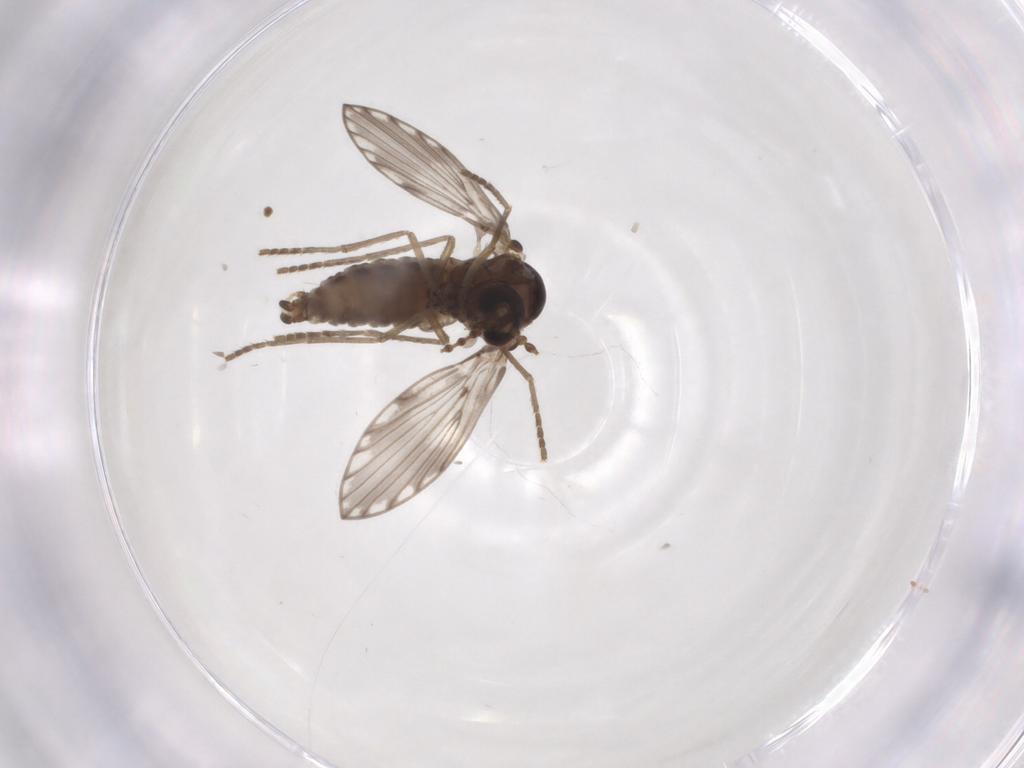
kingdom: Animalia
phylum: Arthropoda
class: Insecta
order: Diptera
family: Psychodidae
